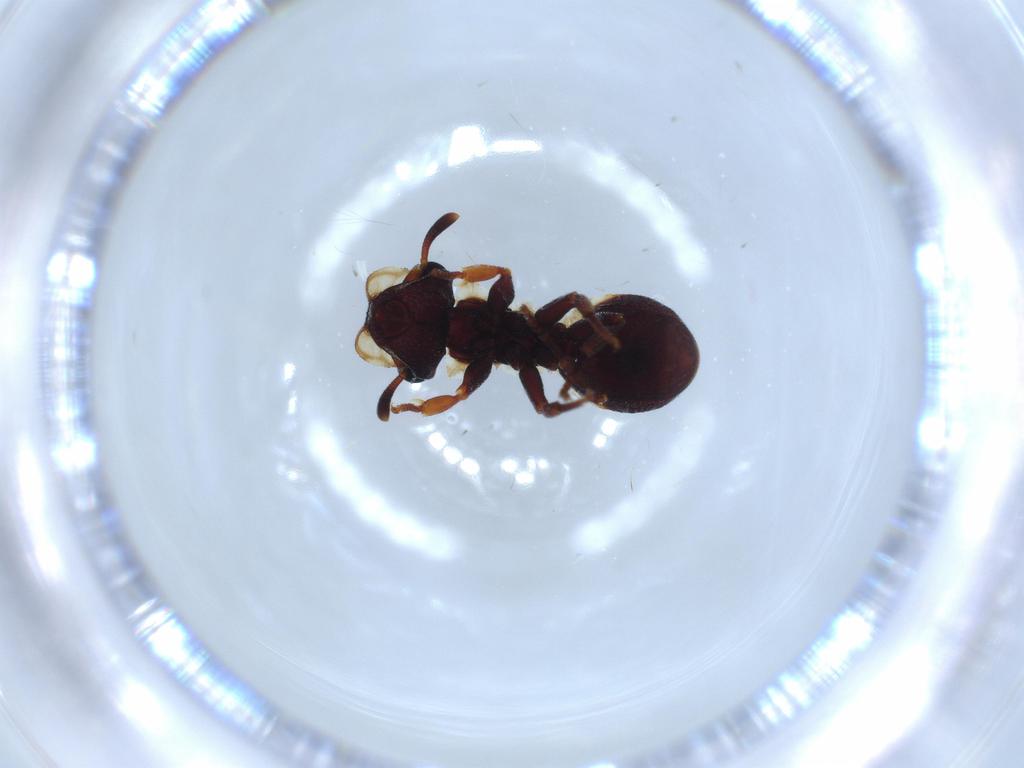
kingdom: Animalia
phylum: Arthropoda
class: Insecta
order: Hymenoptera
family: Formicidae
